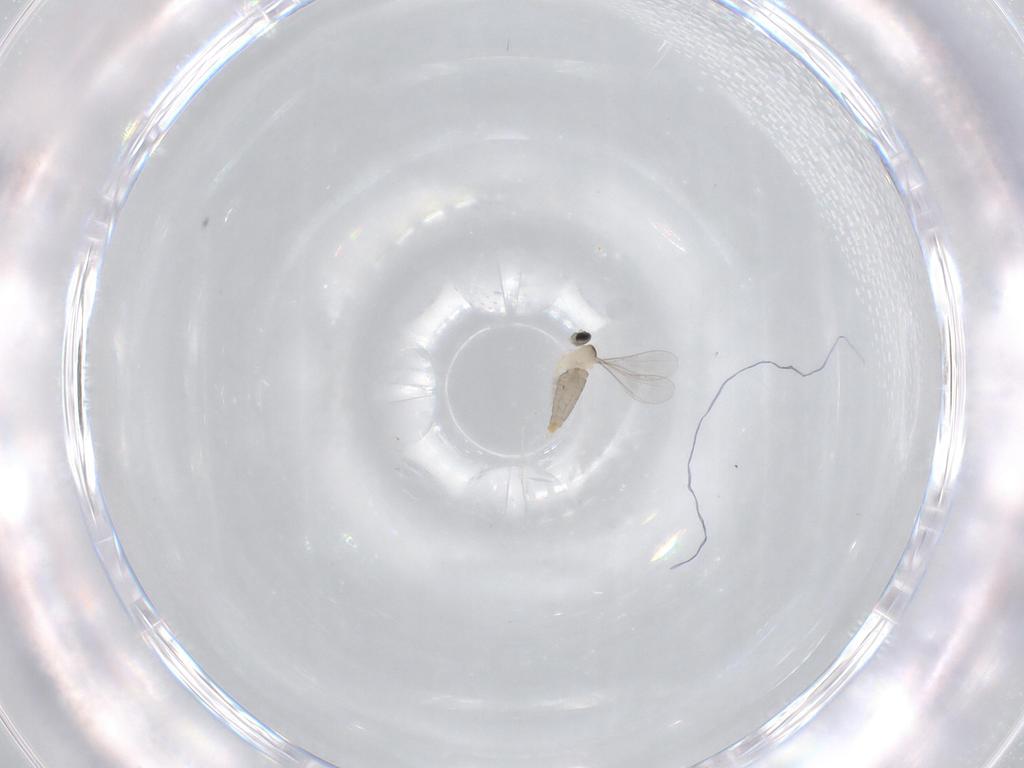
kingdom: Animalia
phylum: Arthropoda
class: Insecta
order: Diptera
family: Cecidomyiidae
